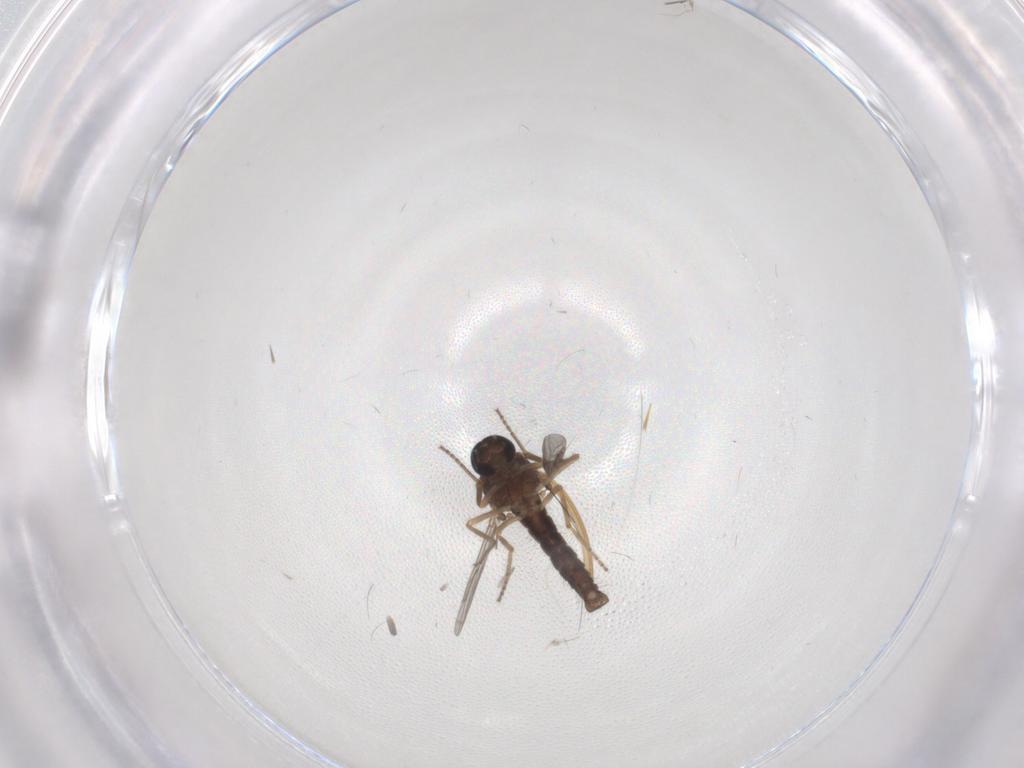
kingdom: Animalia
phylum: Arthropoda
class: Insecta
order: Diptera
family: Ceratopogonidae
